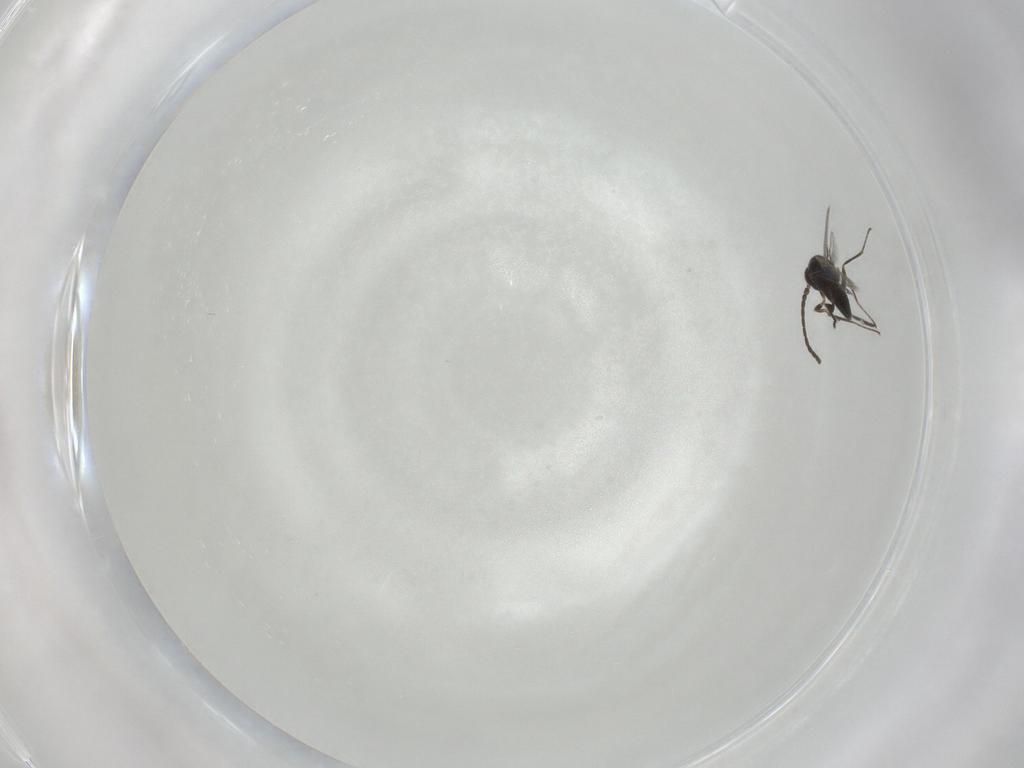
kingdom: Animalia
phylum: Arthropoda
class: Insecta
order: Hymenoptera
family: Mymaridae
